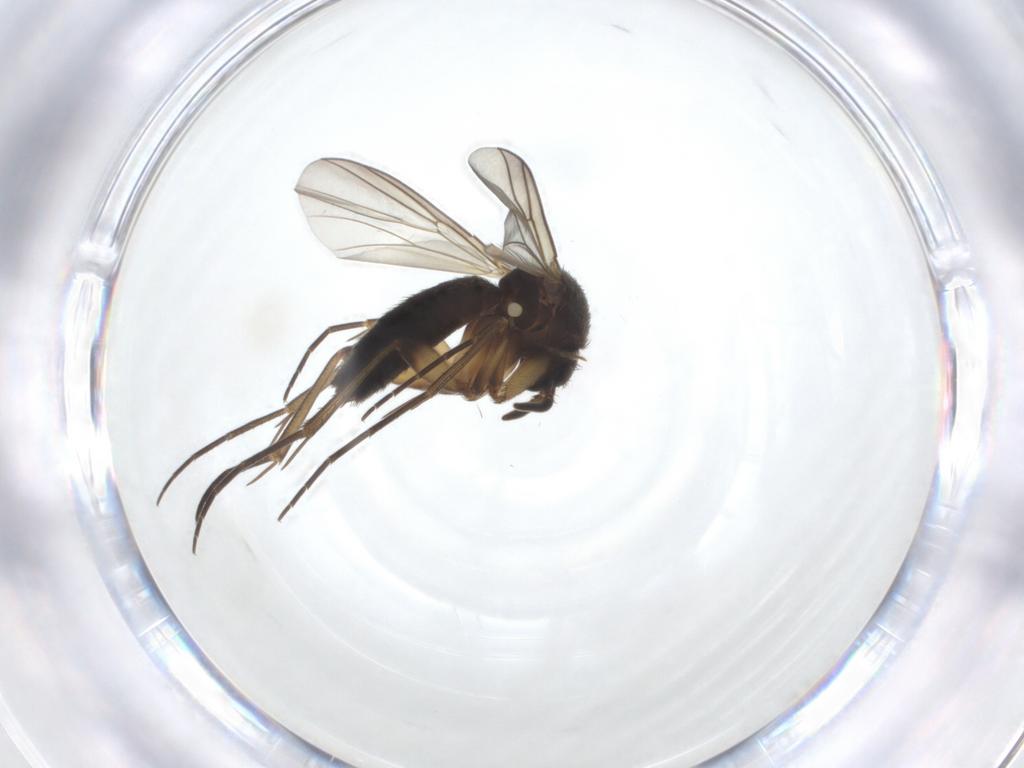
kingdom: Animalia
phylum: Arthropoda
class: Insecta
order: Diptera
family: Mycetophilidae
